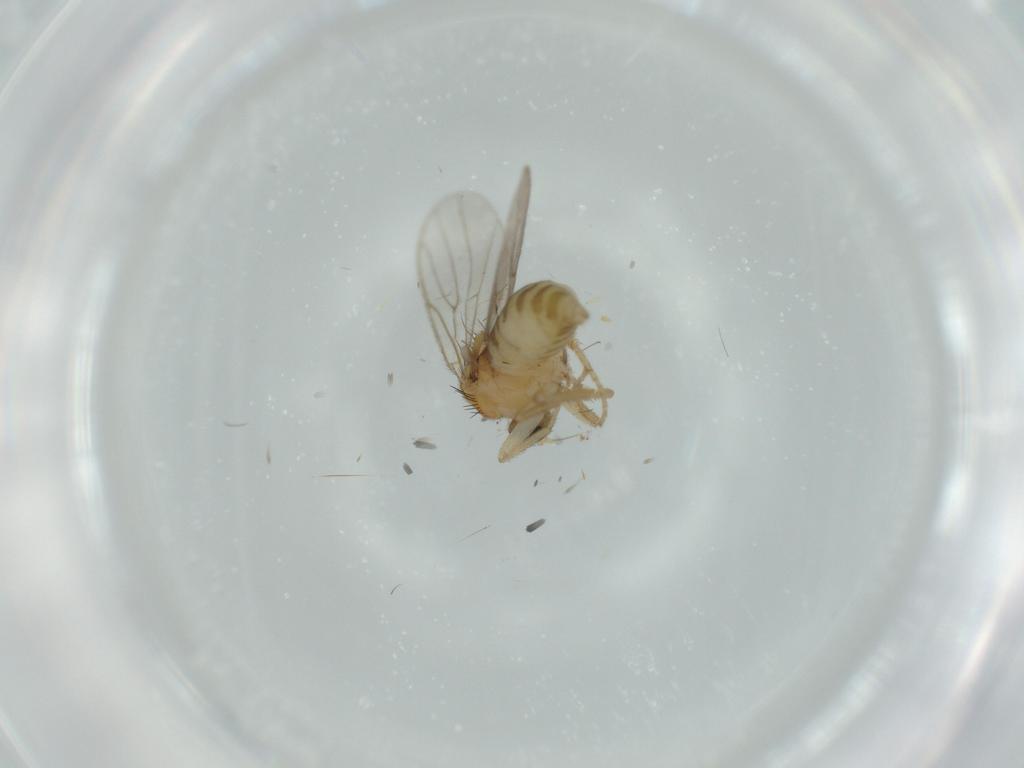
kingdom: Animalia
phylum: Arthropoda
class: Insecta
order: Diptera
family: Hybotidae
